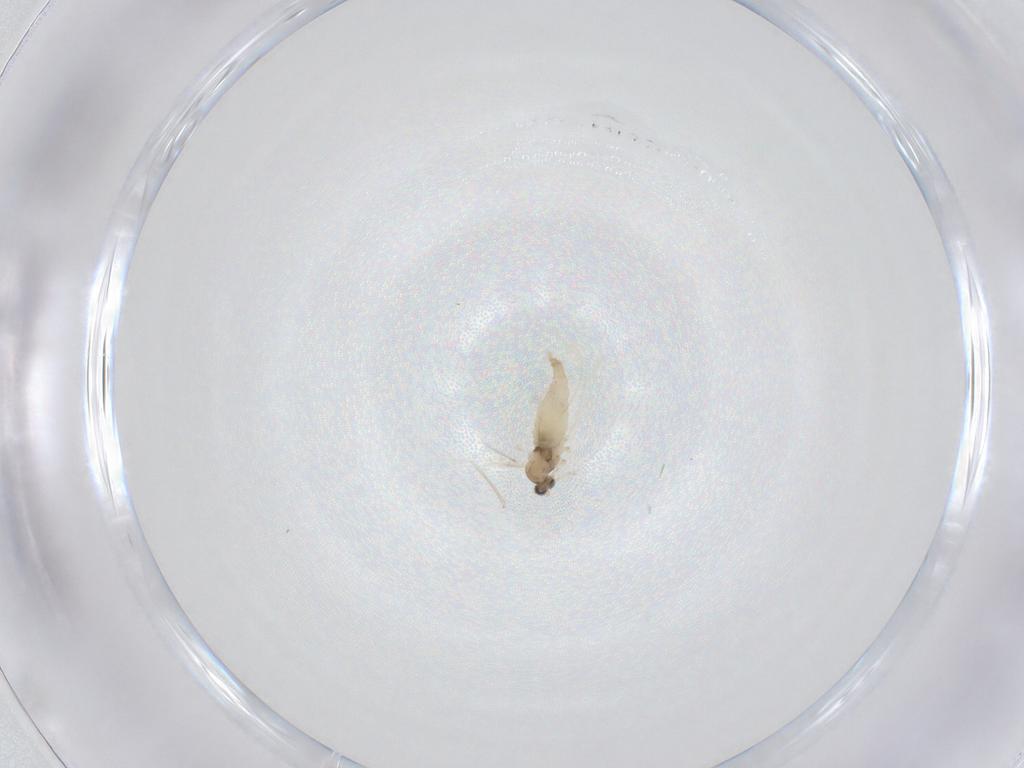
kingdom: Animalia
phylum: Arthropoda
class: Insecta
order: Diptera
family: Cecidomyiidae
